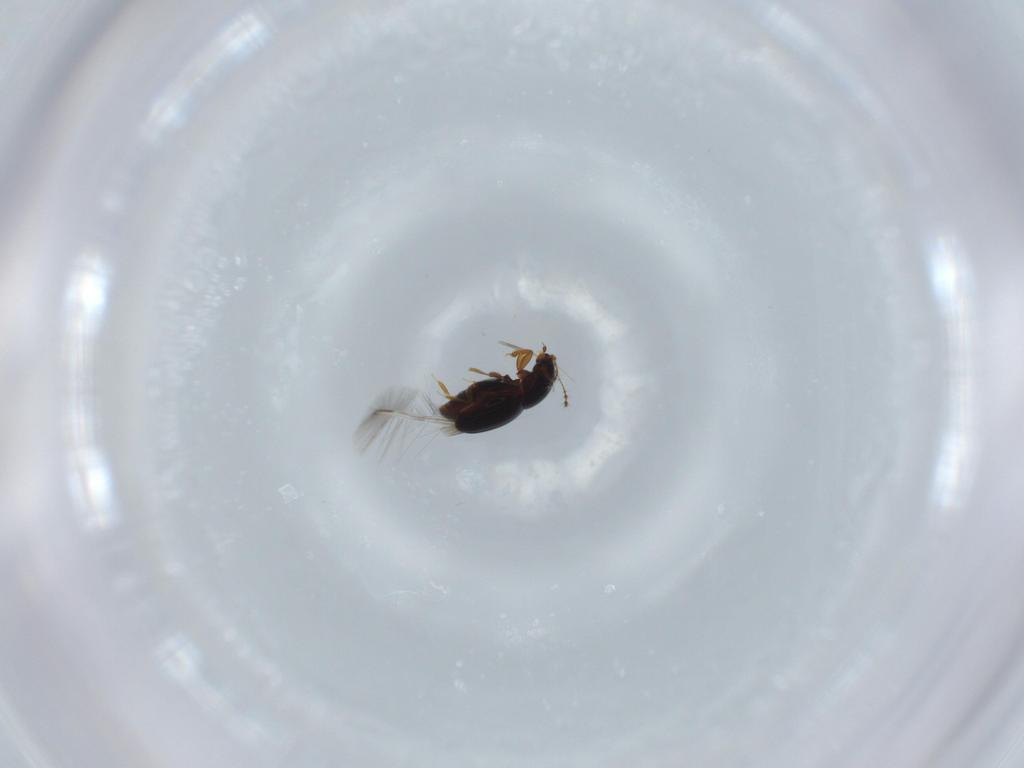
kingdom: Animalia
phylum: Arthropoda
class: Insecta
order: Coleoptera
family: Ptiliidae
